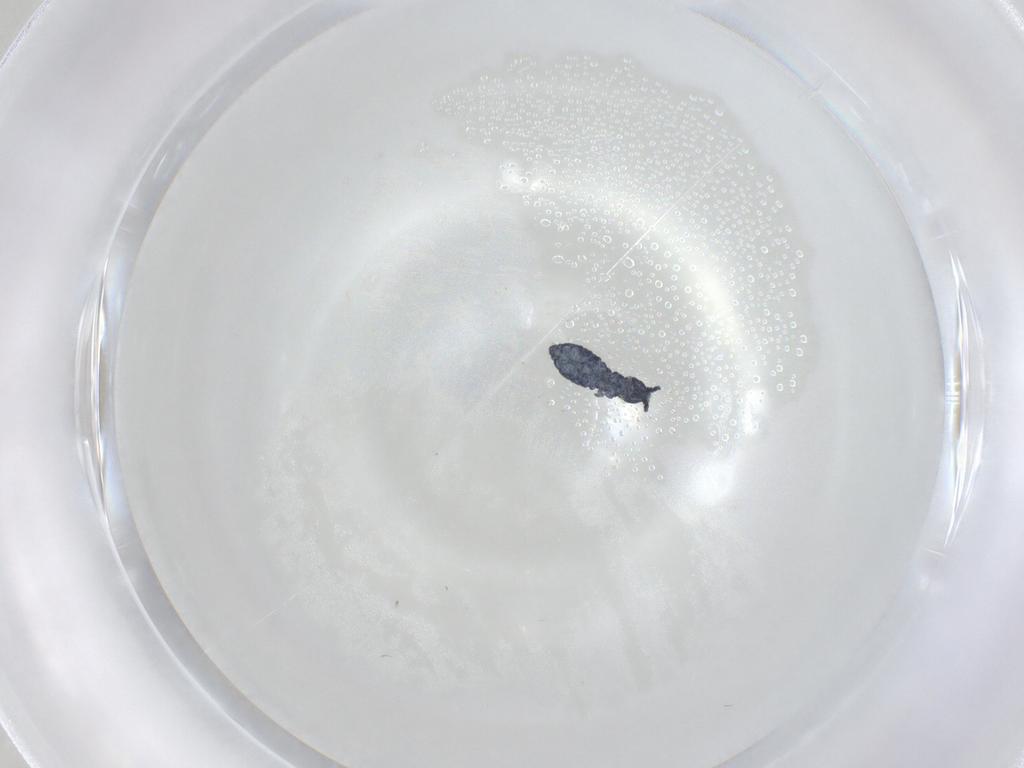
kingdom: Animalia
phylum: Arthropoda
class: Collembola
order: Poduromorpha
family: Hypogastruridae
